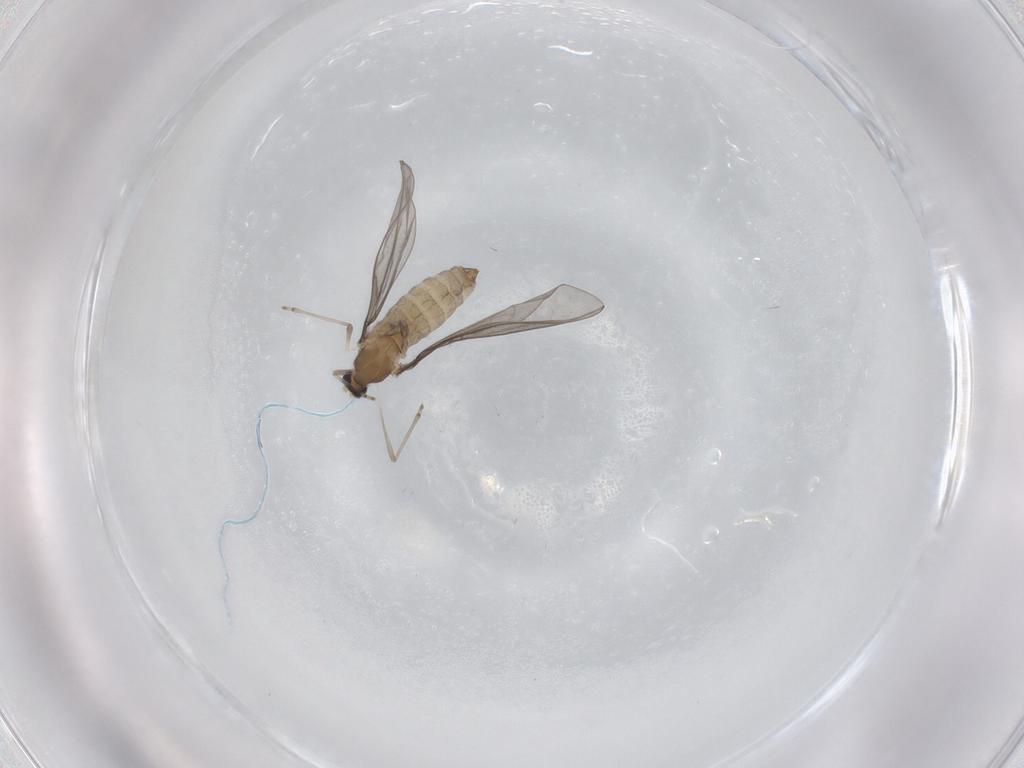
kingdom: Animalia
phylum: Arthropoda
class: Insecta
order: Diptera
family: Cecidomyiidae
